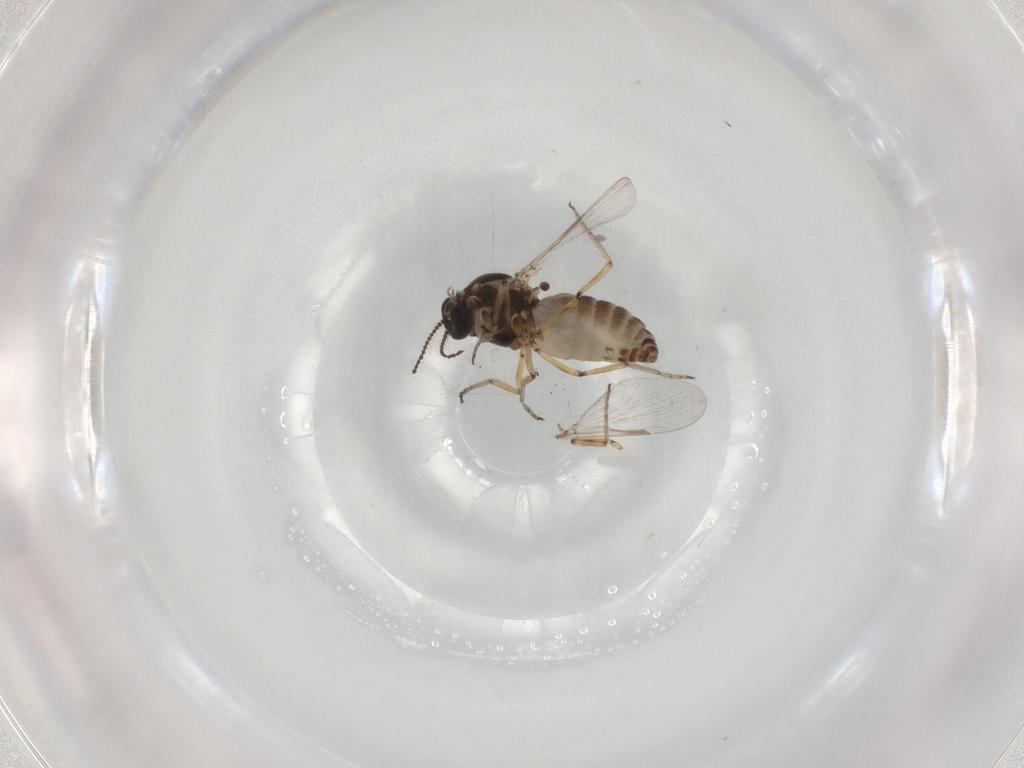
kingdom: Animalia
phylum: Arthropoda
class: Insecta
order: Diptera
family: Ceratopogonidae
